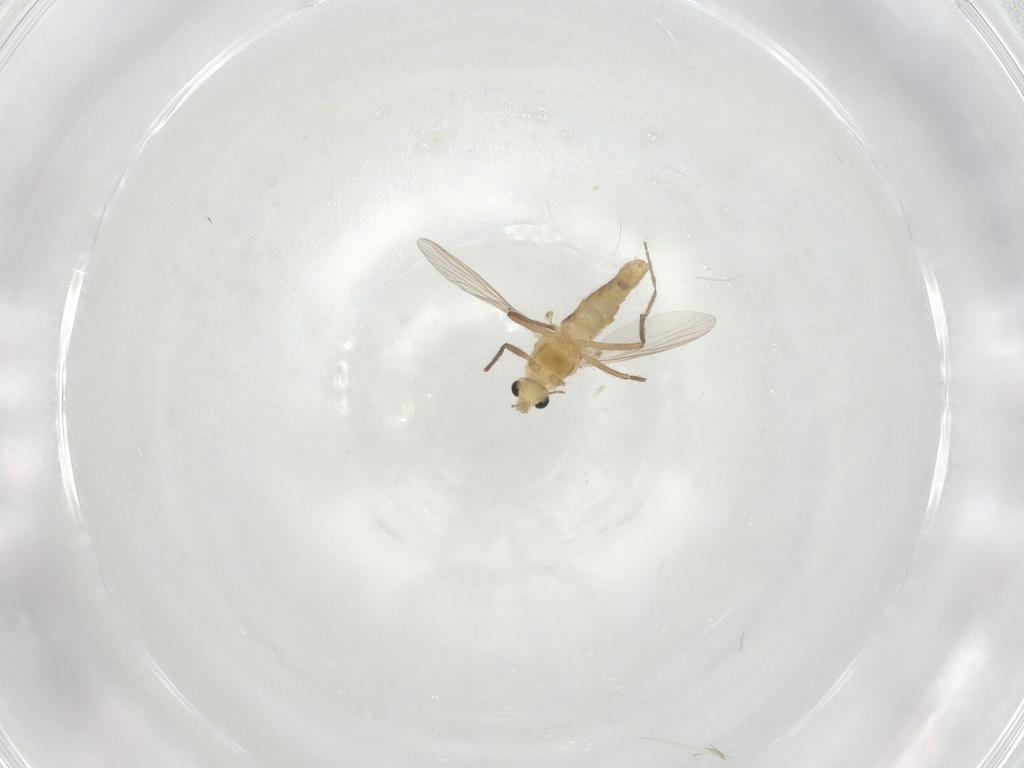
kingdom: Animalia
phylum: Arthropoda
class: Insecta
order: Diptera
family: Chironomidae
